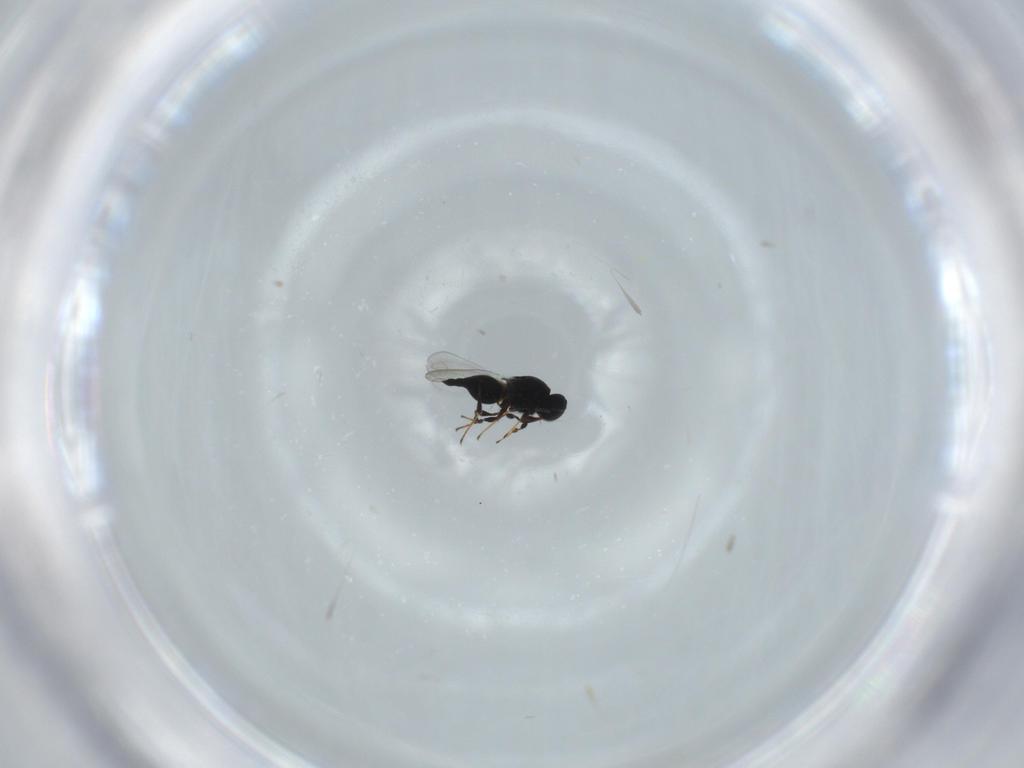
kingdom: Animalia
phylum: Arthropoda
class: Insecta
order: Hymenoptera
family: Platygastridae
